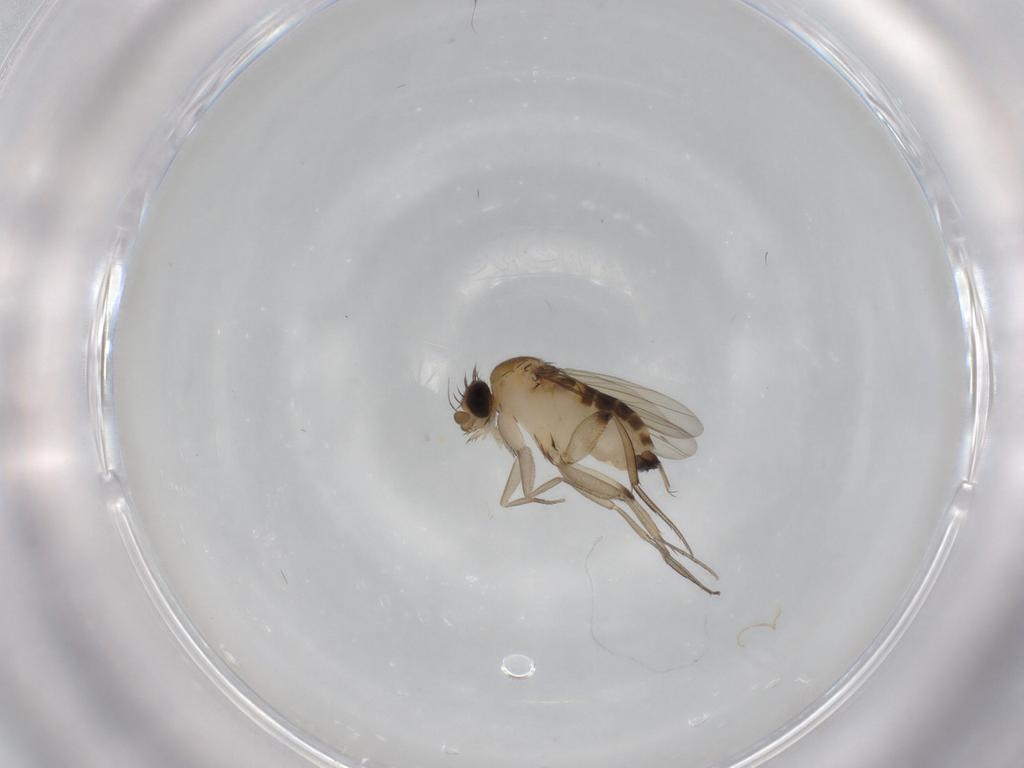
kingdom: Animalia
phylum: Arthropoda
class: Insecta
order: Diptera
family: Phoridae
